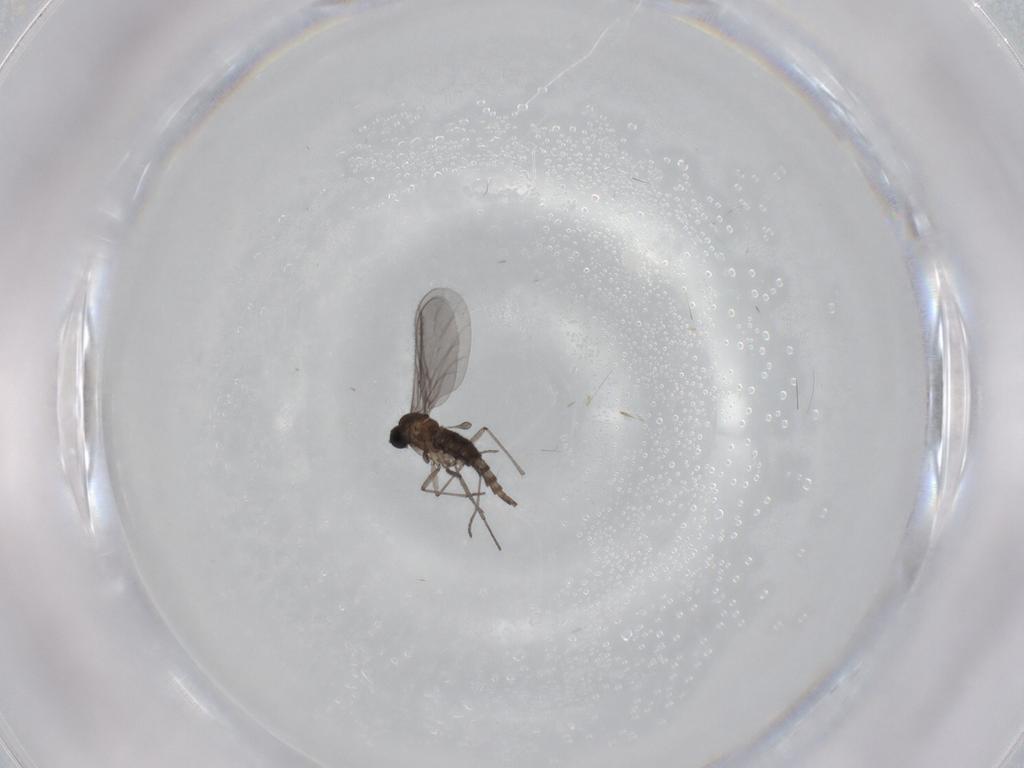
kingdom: Animalia
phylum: Arthropoda
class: Insecta
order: Diptera
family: Sciaridae
